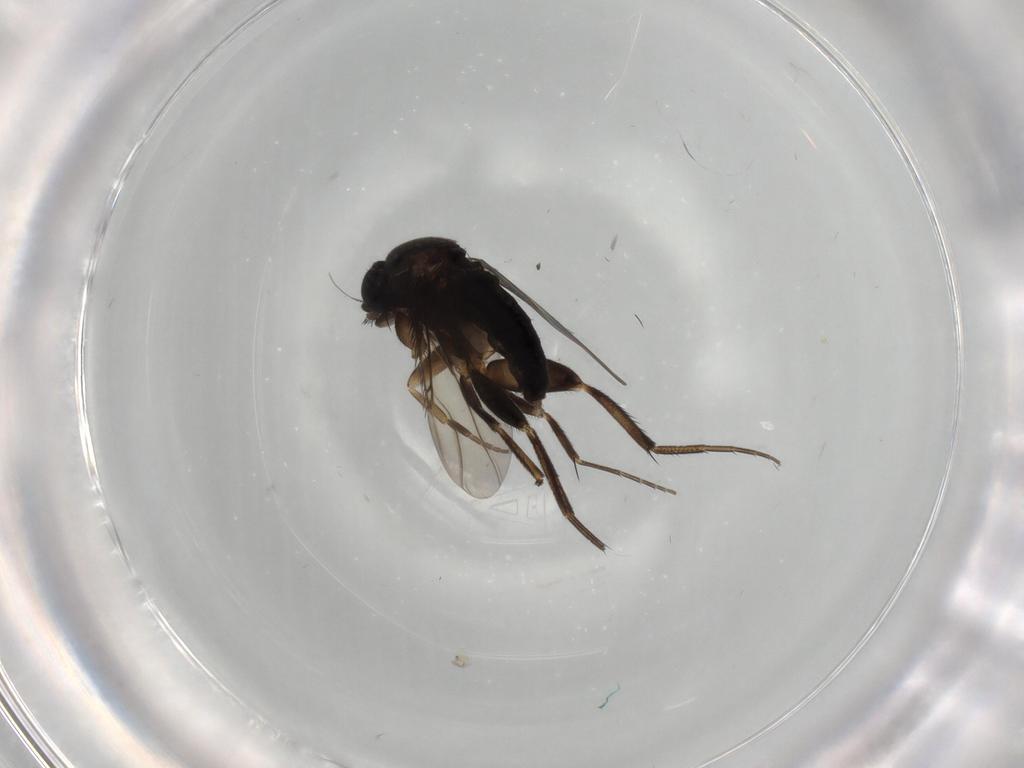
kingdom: Animalia
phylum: Arthropoda
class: Insecta
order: Diptera
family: Phoridae
